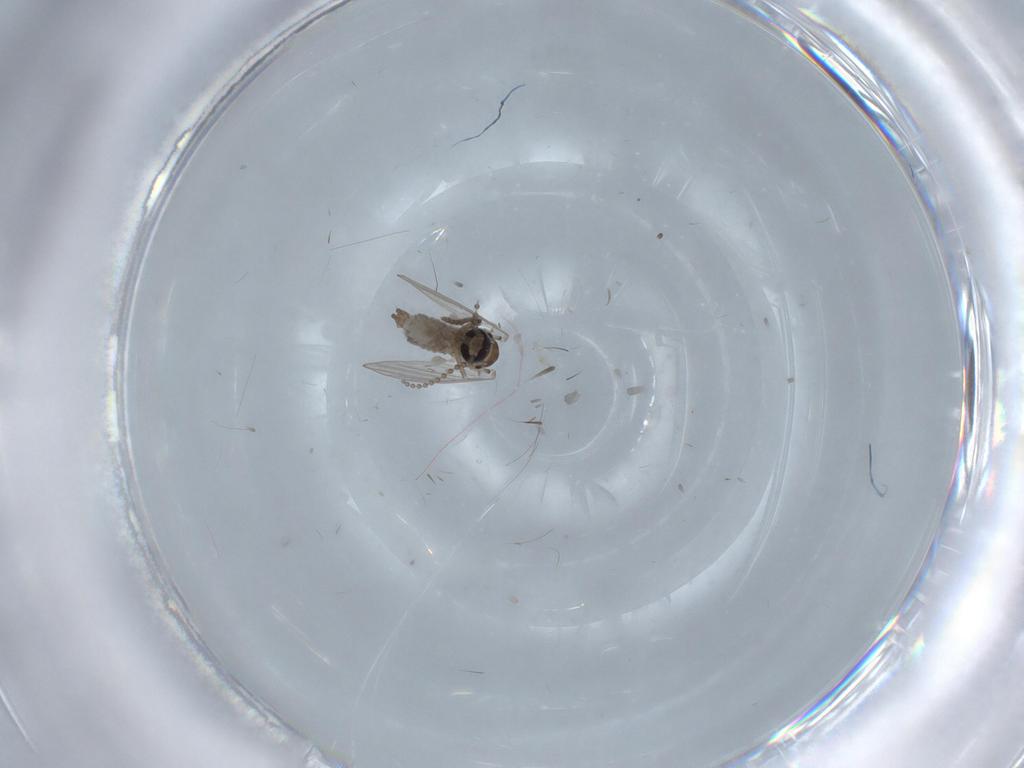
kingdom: Animalia
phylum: Arthropoda
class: Insecta
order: Diptera
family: Psychodidae
